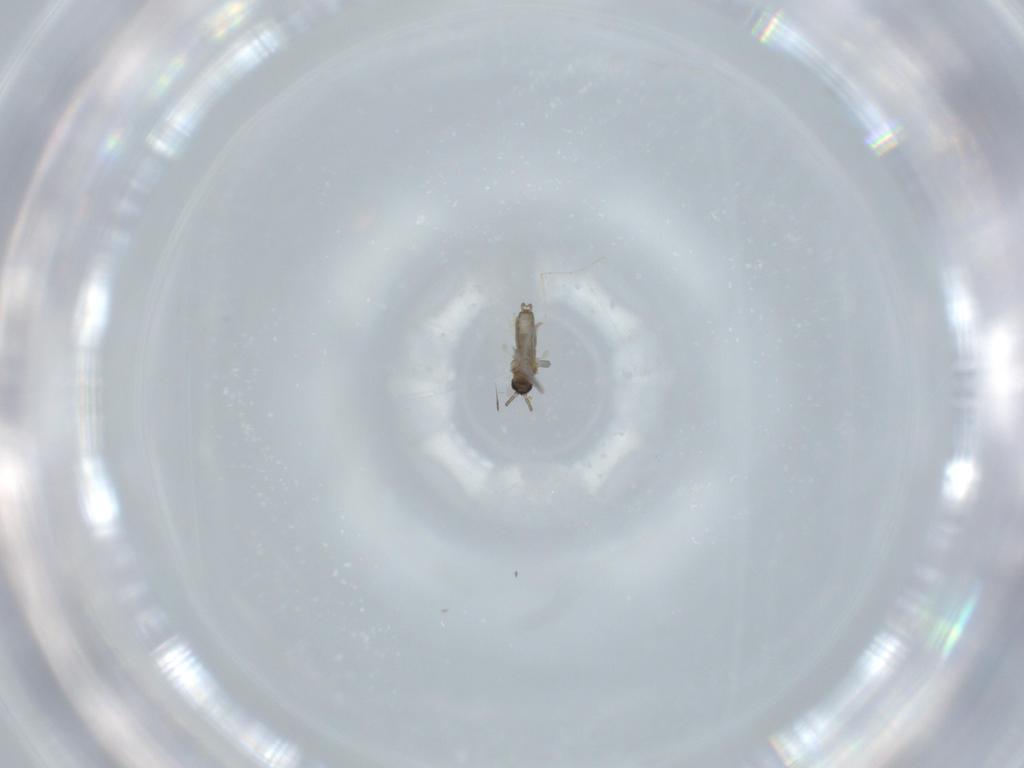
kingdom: Animalia
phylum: Arthropoda
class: Insecta
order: Diptera
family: Cecidomyiidae
